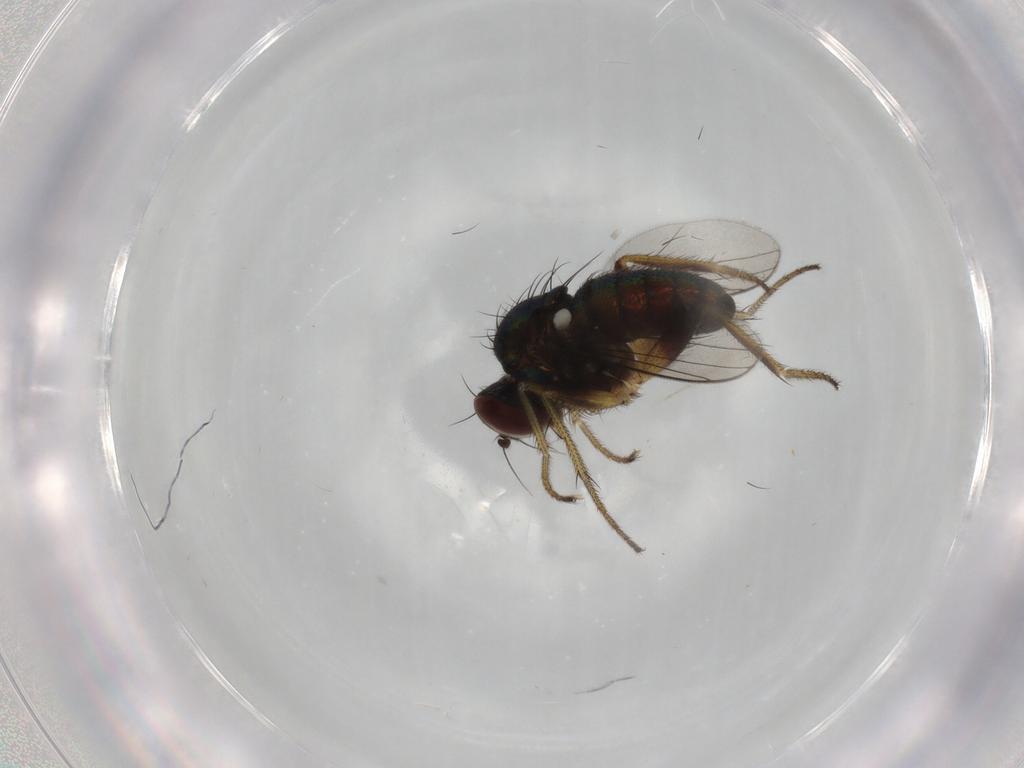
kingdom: Animalia
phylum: Arthropoda
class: Insecta
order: Diptera
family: Dolichopodidae
